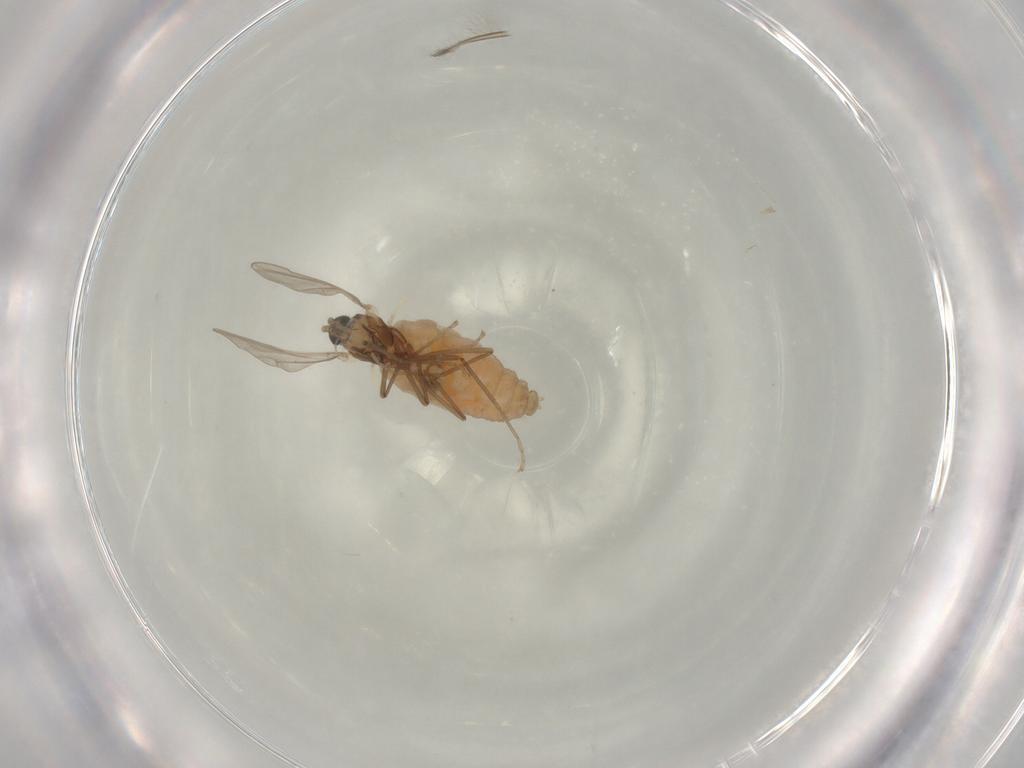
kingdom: Animalia
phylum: Arthropoda
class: Insecta
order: Diptera
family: Cecidomyiidae
